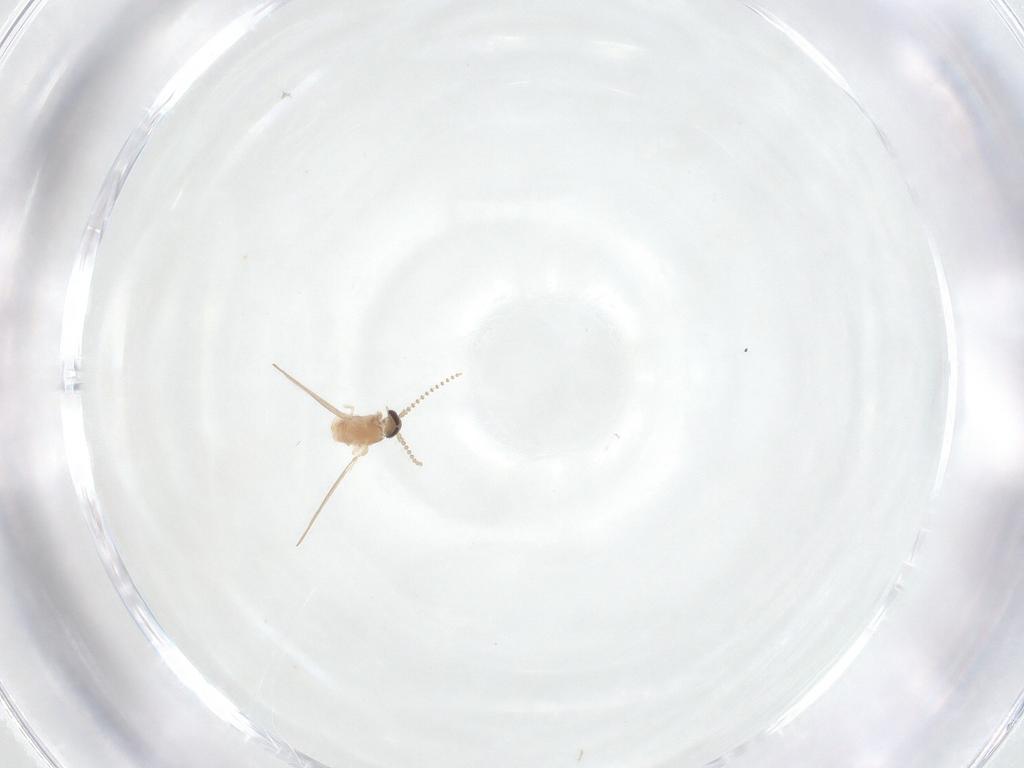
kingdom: Animalia
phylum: Arthropoda
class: Insecta
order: Diptera
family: Psychodidae
